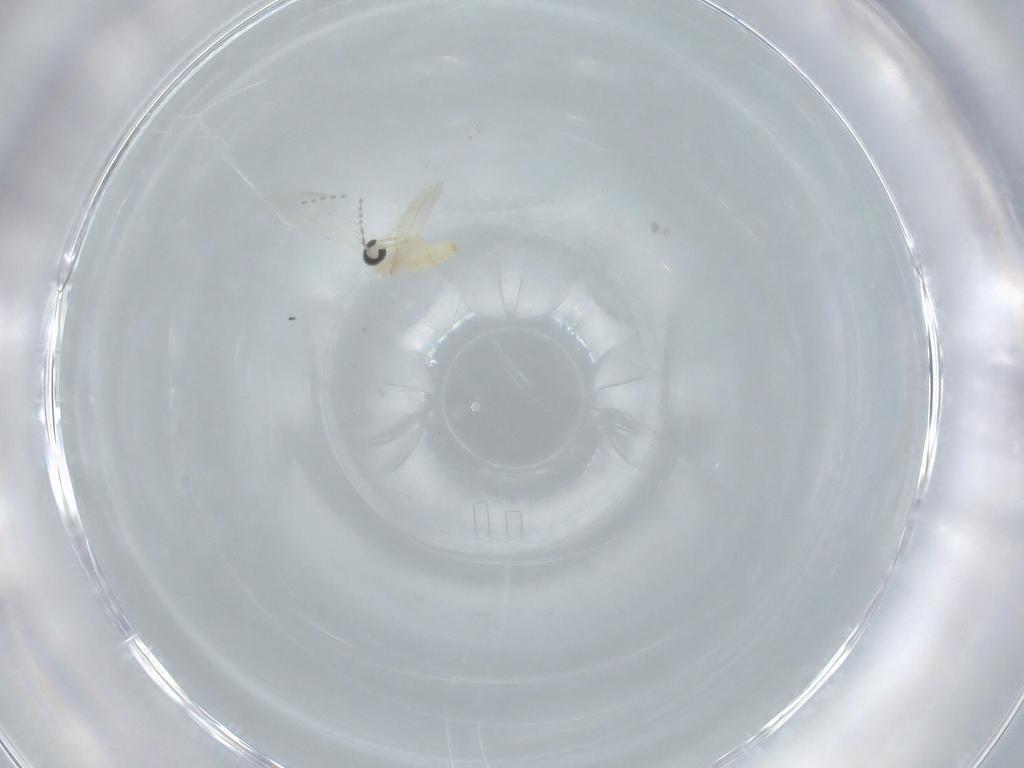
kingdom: Animalia
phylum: Arthropoda
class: Insecta
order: Diptera
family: Cecidomyiidae
